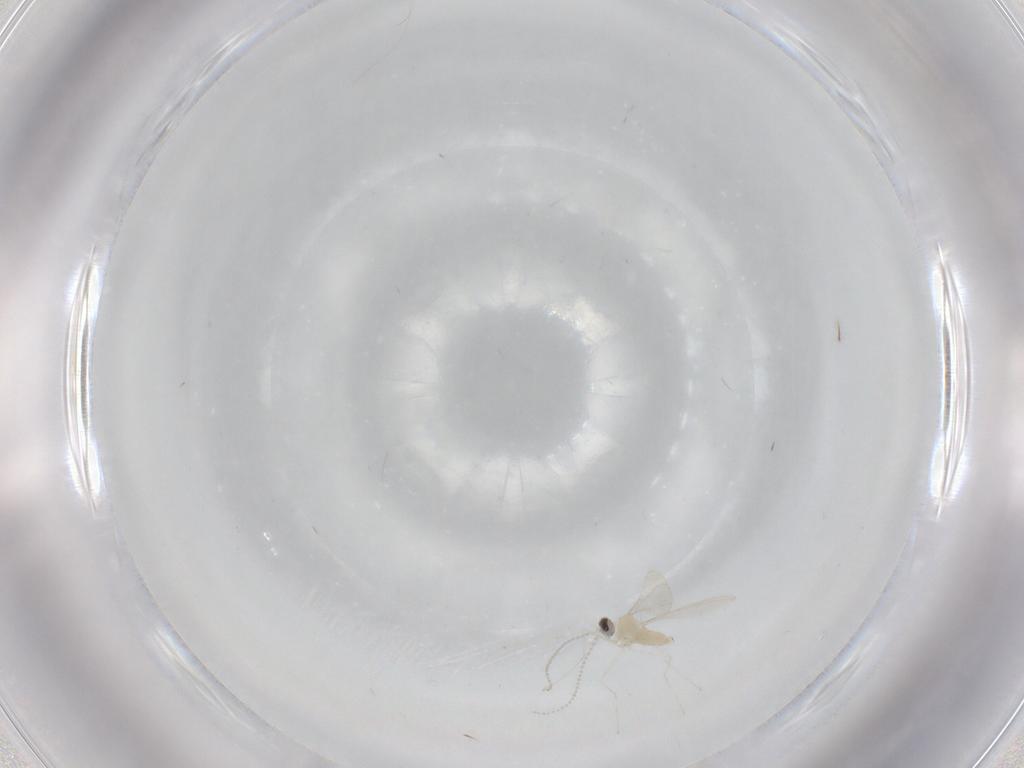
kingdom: Animalia
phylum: Arthropoda
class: Insecta
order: Diptera
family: Cecidomyiidae
